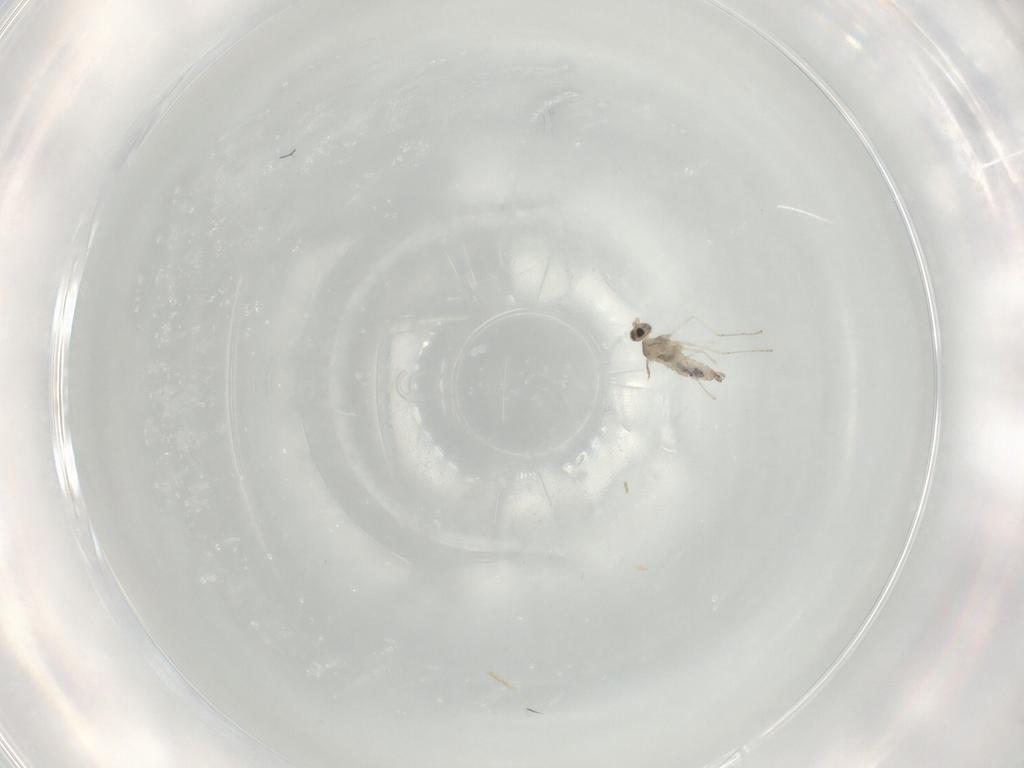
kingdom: Animalia
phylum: Arthropoda
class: Insecta
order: Diptera
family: Cecidomyiidae
